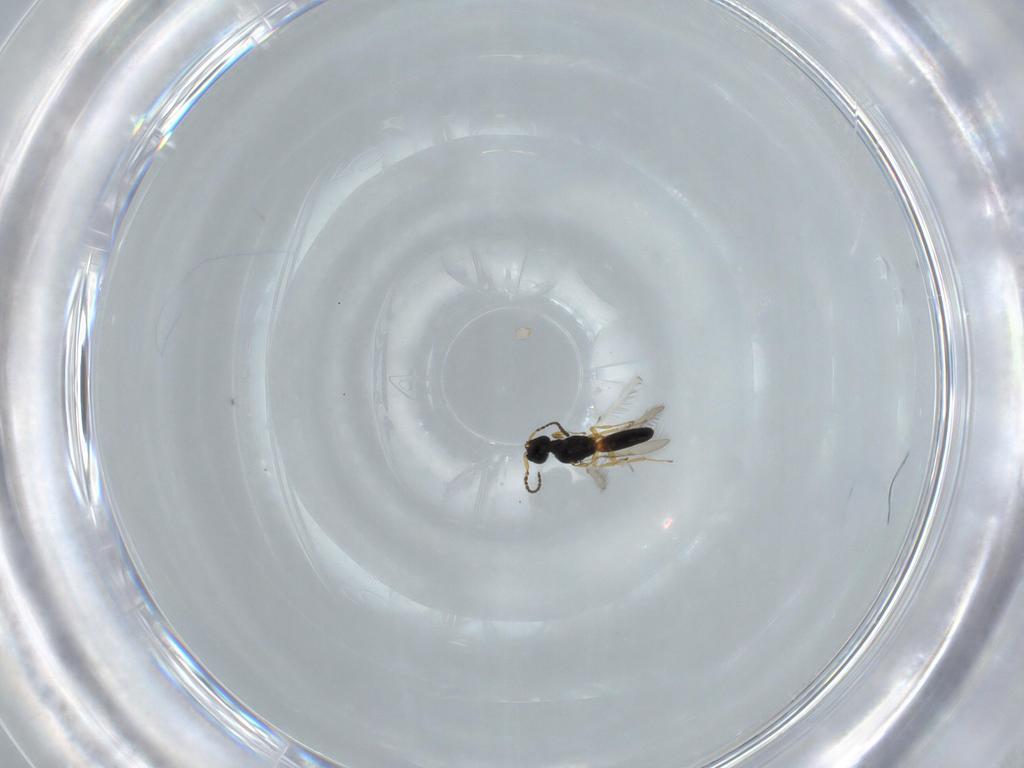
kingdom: Animalia
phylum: Arthropoda
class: Insecta
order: Hymenoptera
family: Scelionidae
